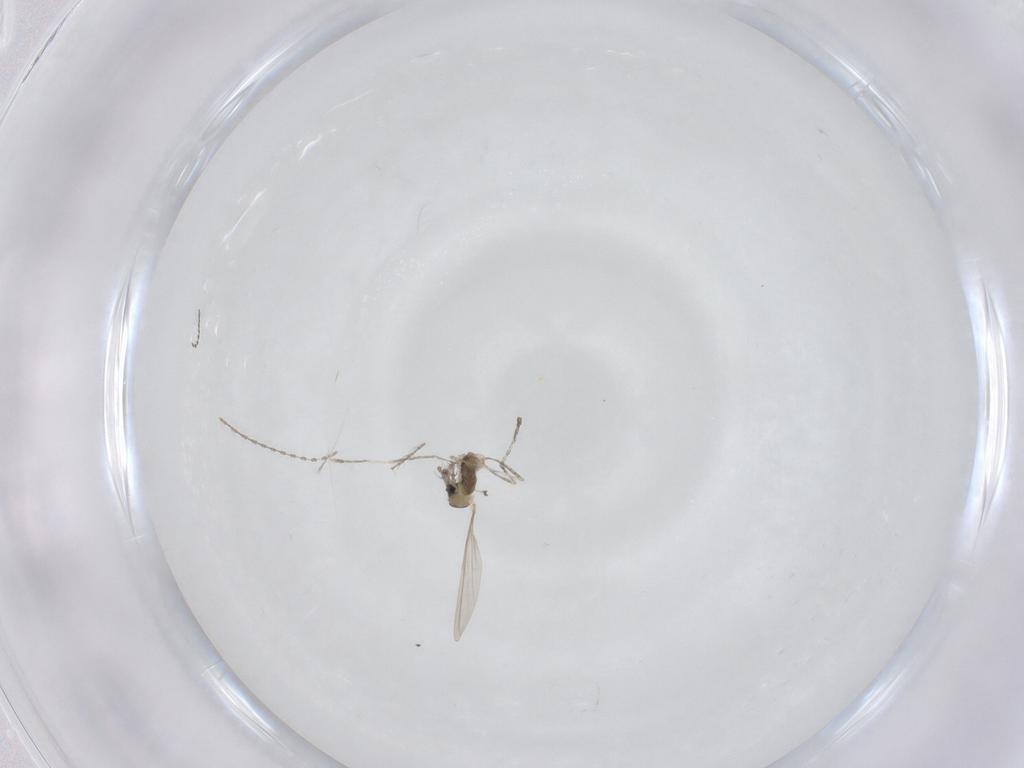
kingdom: Animalia
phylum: Arthropoda
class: Insecta
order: Diptera
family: Cecidomyiidae
